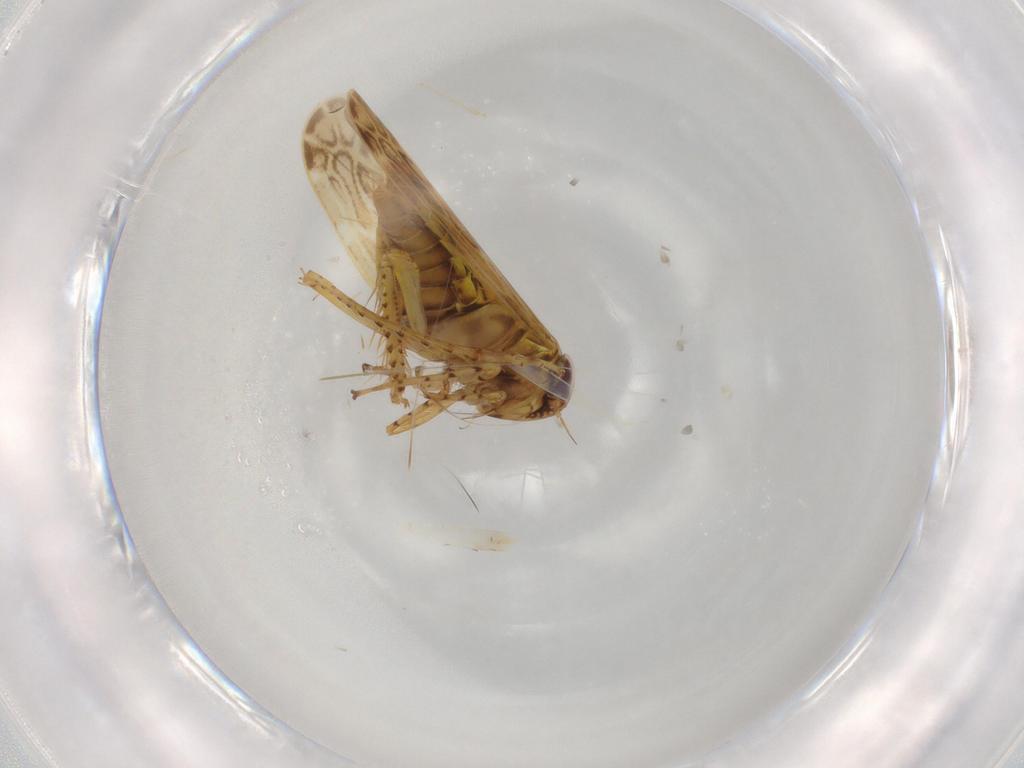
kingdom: Animalia
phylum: Arthropoda
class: Insecta
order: Hemiptera
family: Cicadellidae
